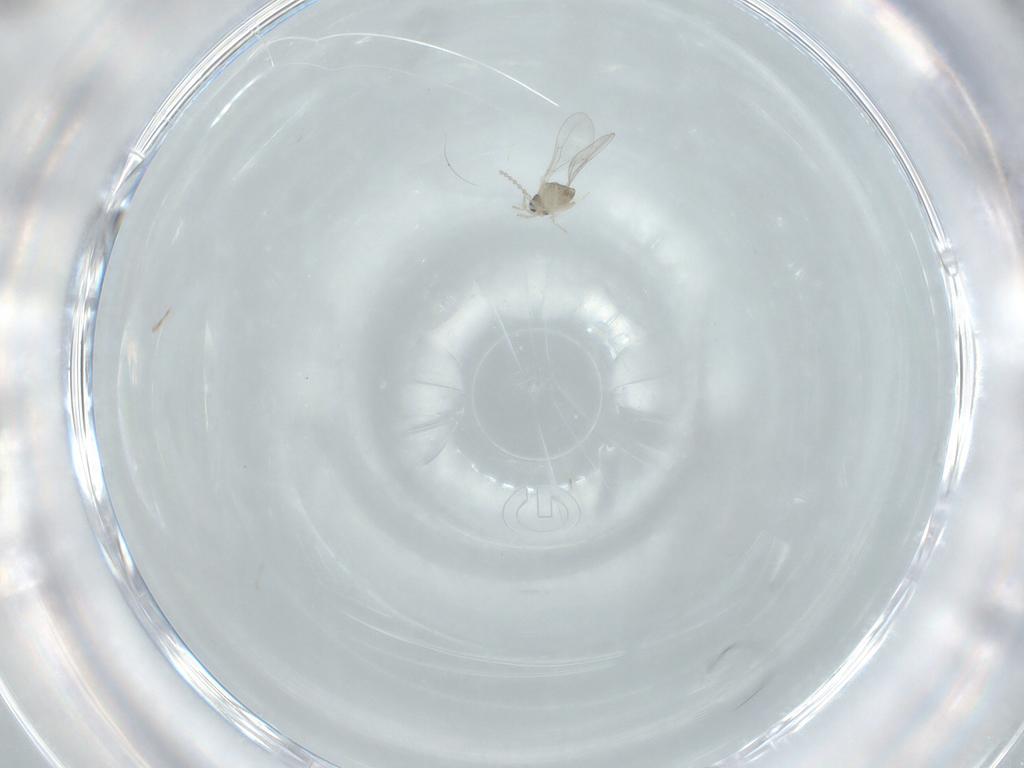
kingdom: Animalia
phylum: Arthropoda
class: Insecta
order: Diptera
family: Cecidomyiidae
